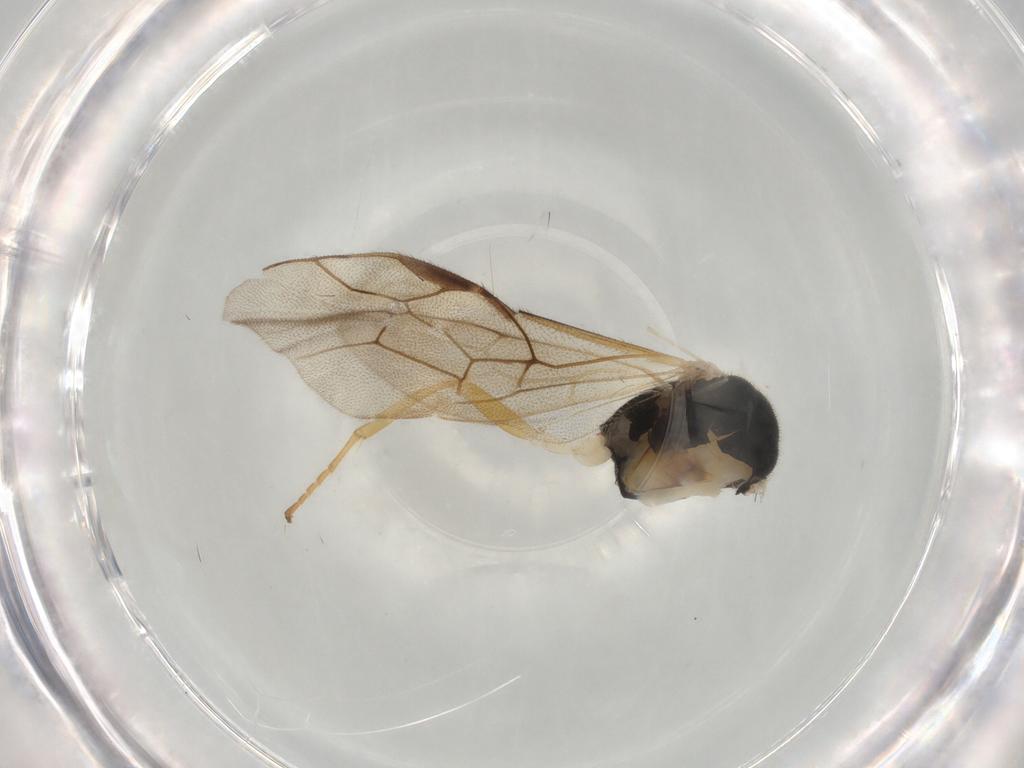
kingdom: Animalia
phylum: Arthropoda
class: Insecta
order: Hymenoptera
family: Ichneumonidae
